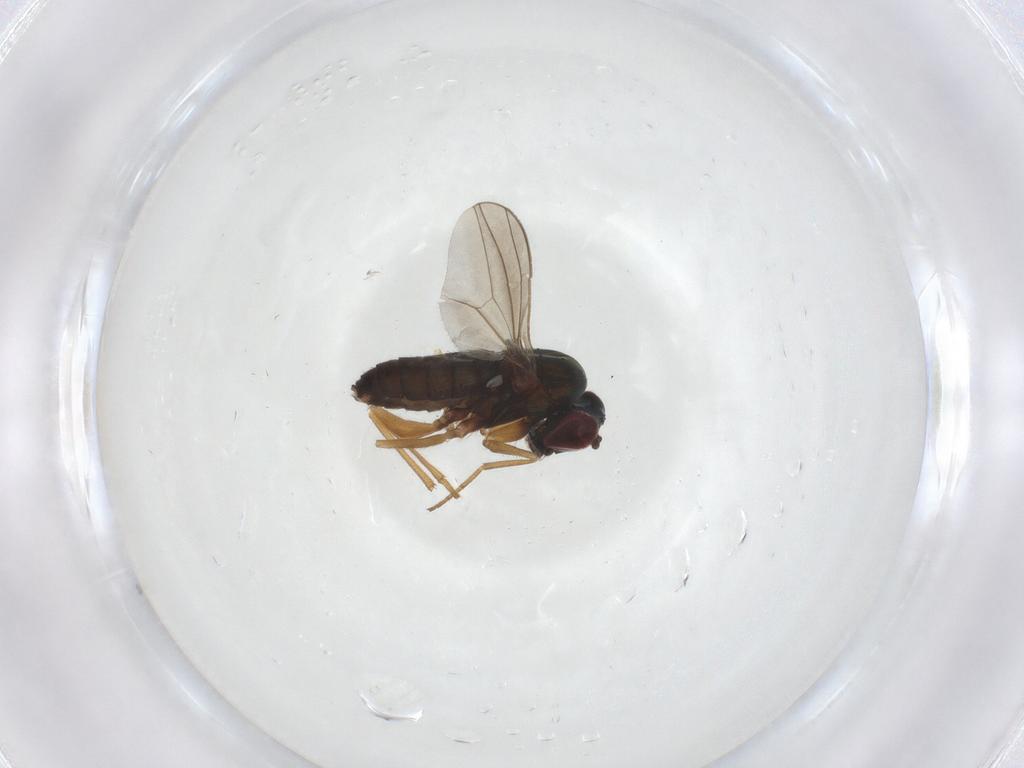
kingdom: Animalia
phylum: Arthropoda
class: Insecta
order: Diptera
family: Dolichopodidae
